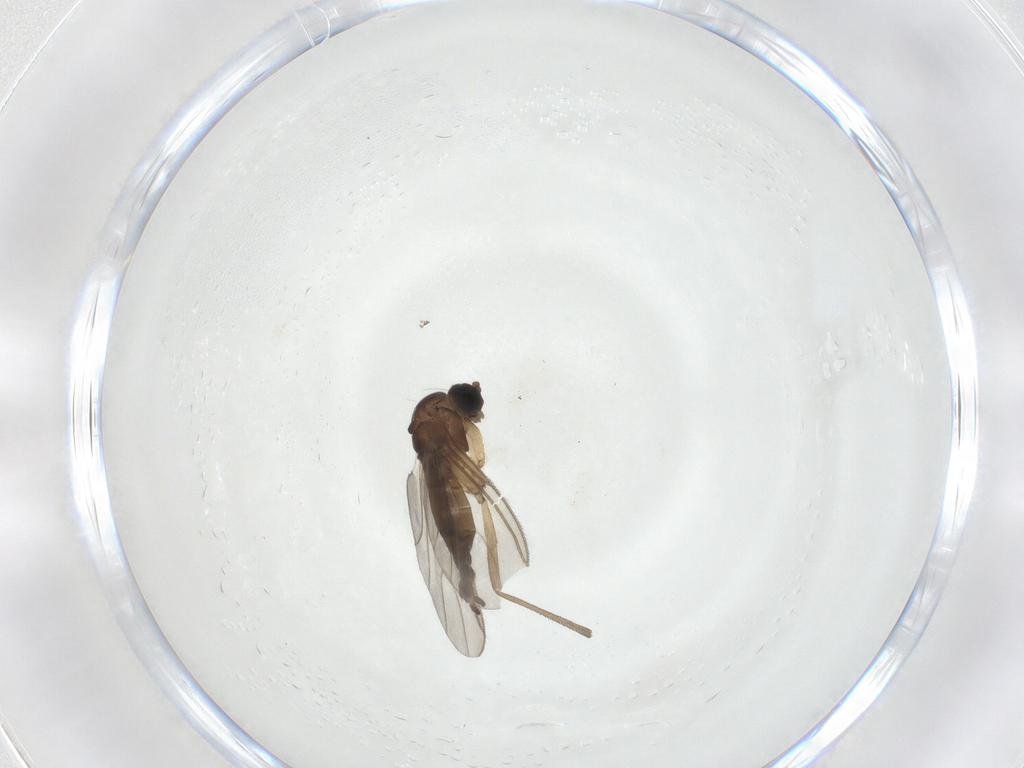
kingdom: Animalia
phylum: Arthropoda
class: Insecta
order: Diptera
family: Sciaridae
